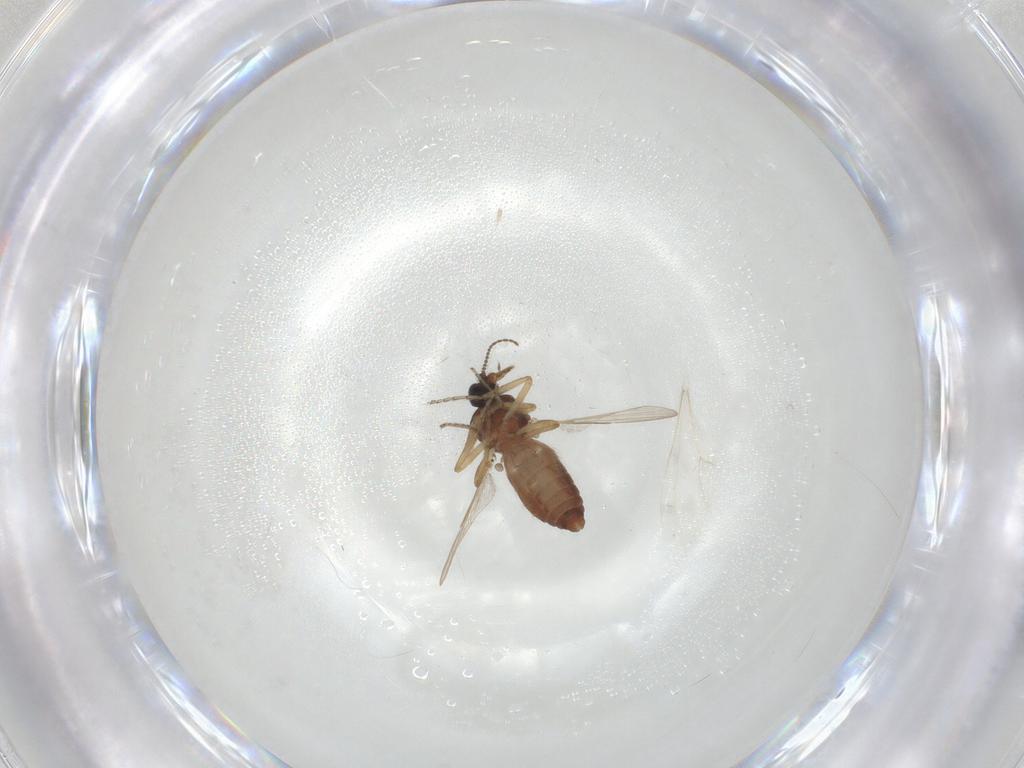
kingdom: Animalia
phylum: Arthropoda
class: Insecta
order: Diptera
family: Ceratopogonidae
